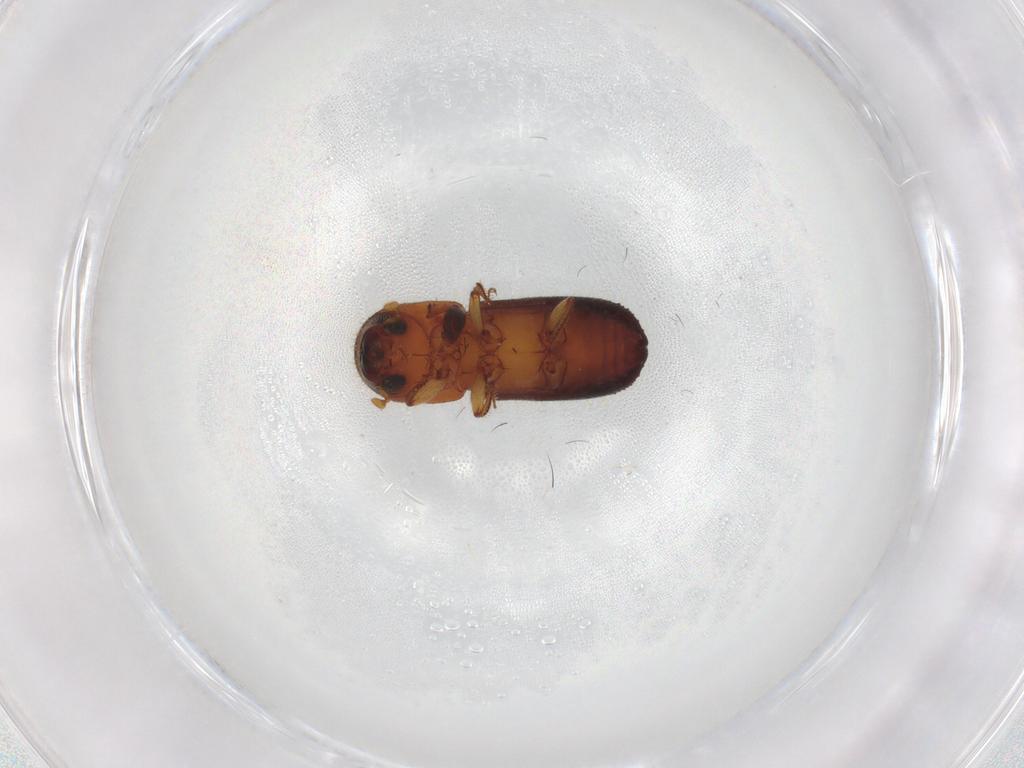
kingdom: Animalia
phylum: Arthropoda
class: Insecta
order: Coleoptera
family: Curculionidae
